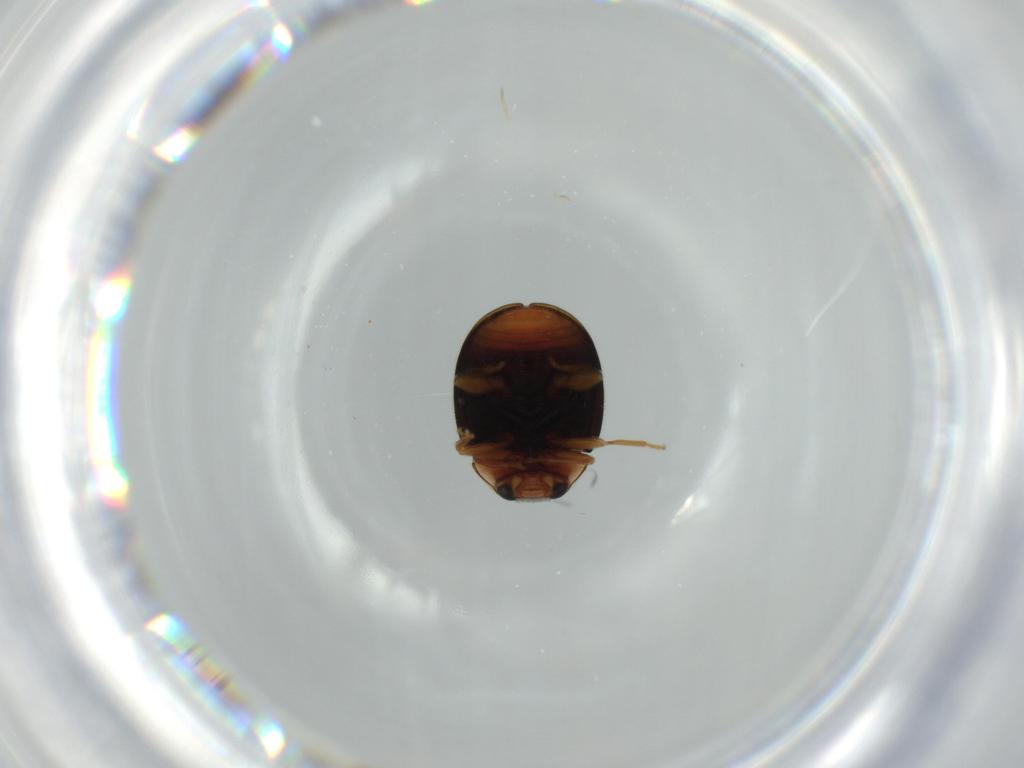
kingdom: Animalia
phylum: Arthropoda
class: Insecta
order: Coleoptera
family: Coccinellidae
